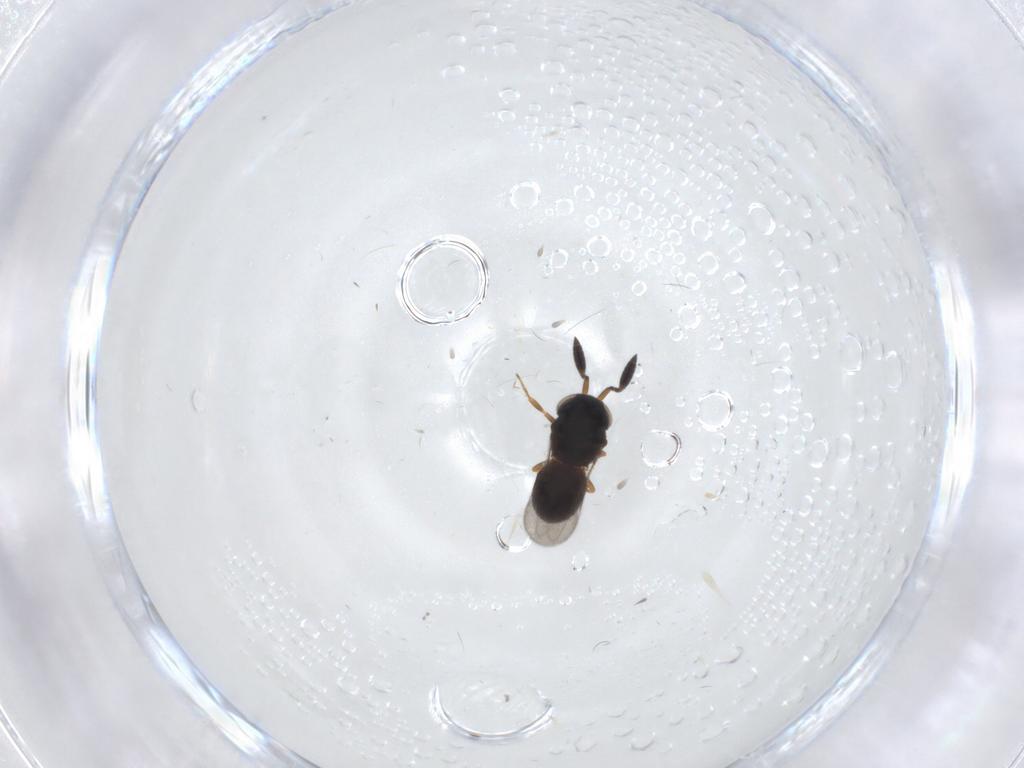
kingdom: Animalia
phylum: Arthropoda
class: Insecta
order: Hymenoptera
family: Scelionidae
